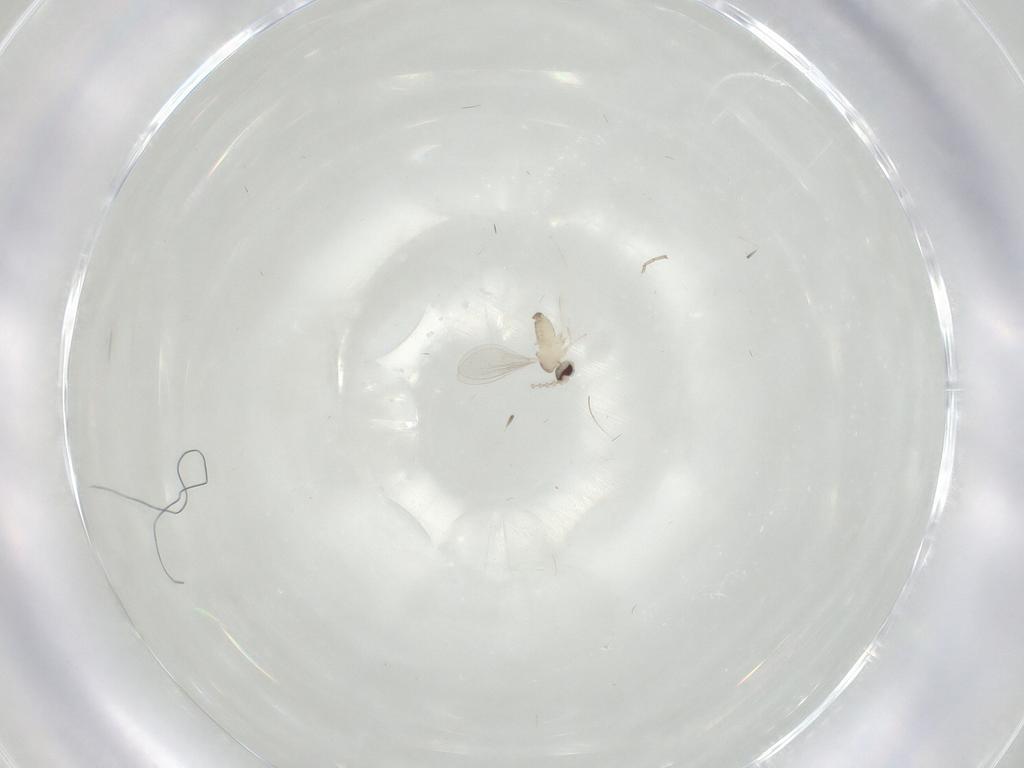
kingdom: Animalia
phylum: Arthropoda
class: Insecta
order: Diptera
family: Cecidomyiidae
